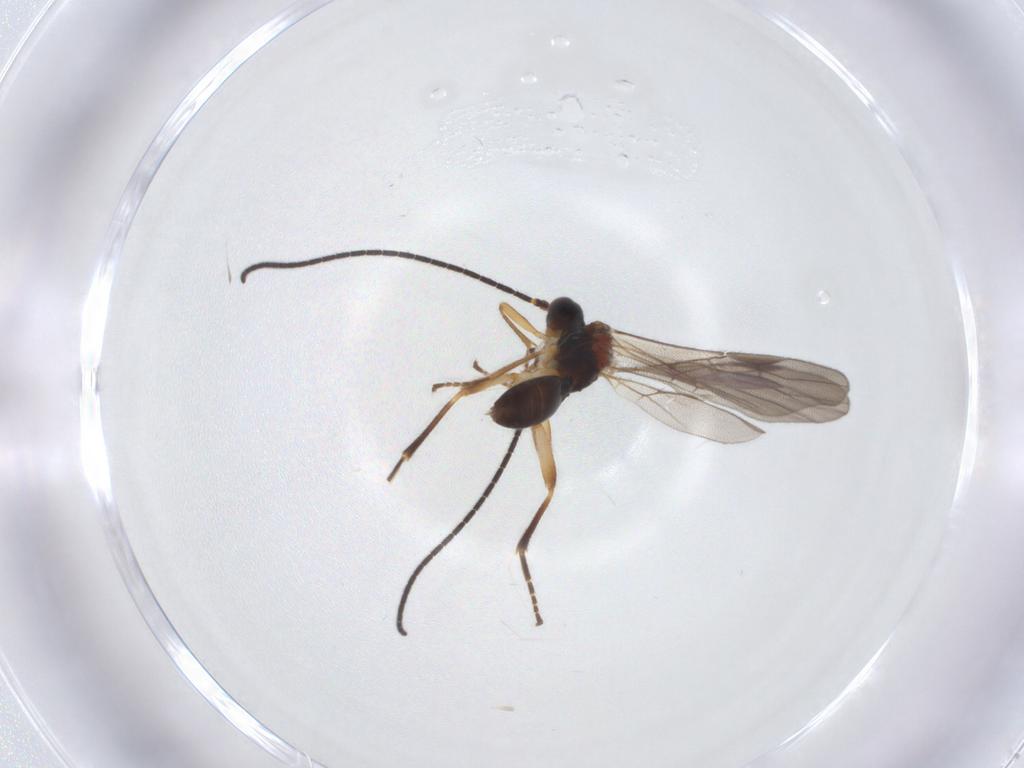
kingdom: Animalia
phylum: Arthropoda
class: Insecta
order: Hymenoptera
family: Braconidae
